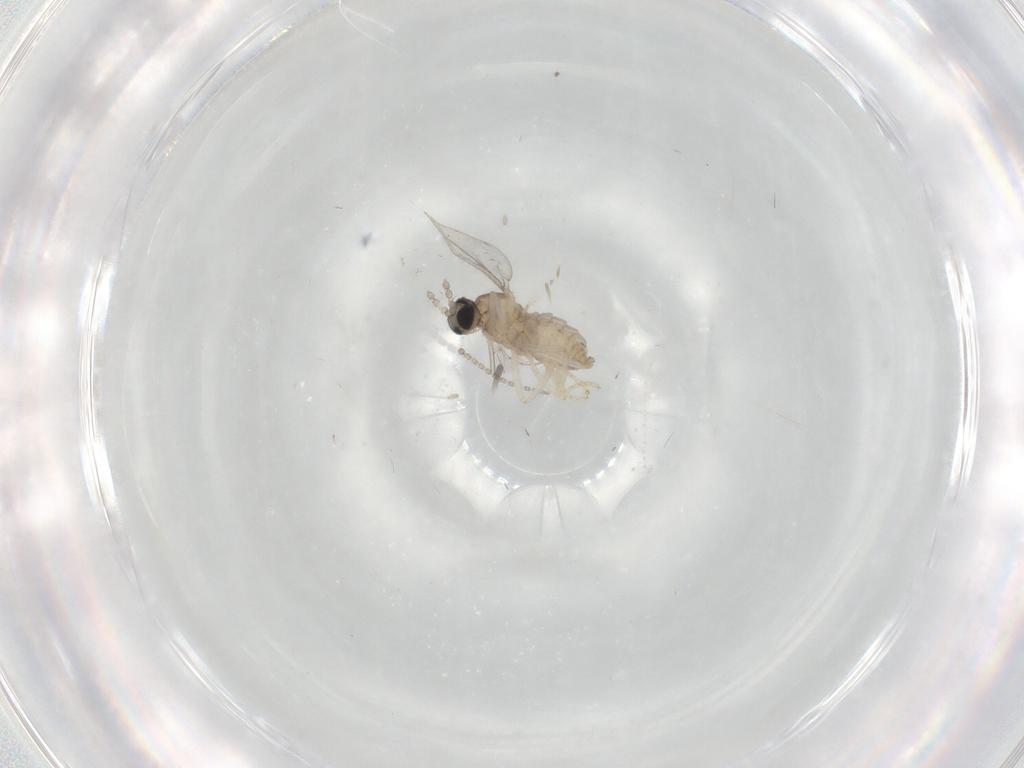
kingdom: Animalia
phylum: Arthropoda
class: Insecta
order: Diptera
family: Cecidomyiidae
